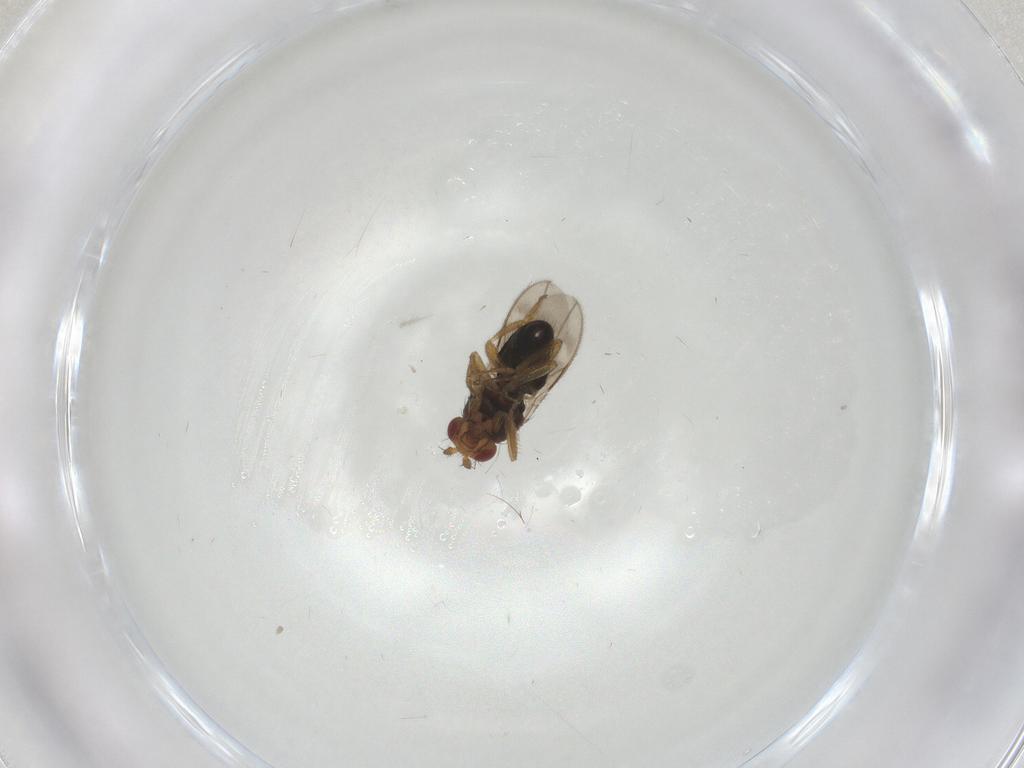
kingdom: Animalia
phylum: Arthropoda
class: Insecta
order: Diptera
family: Sphaeroceridae
